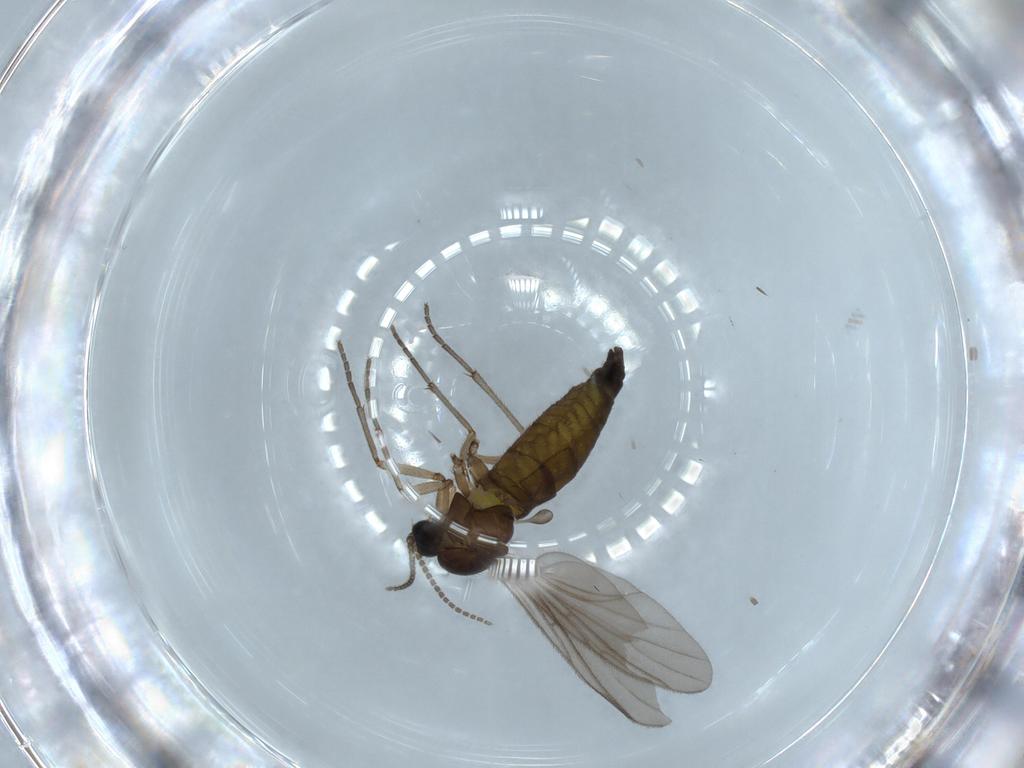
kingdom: Animalia
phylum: Arthropoda
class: Insecta
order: Diptera
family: Sciaridae
